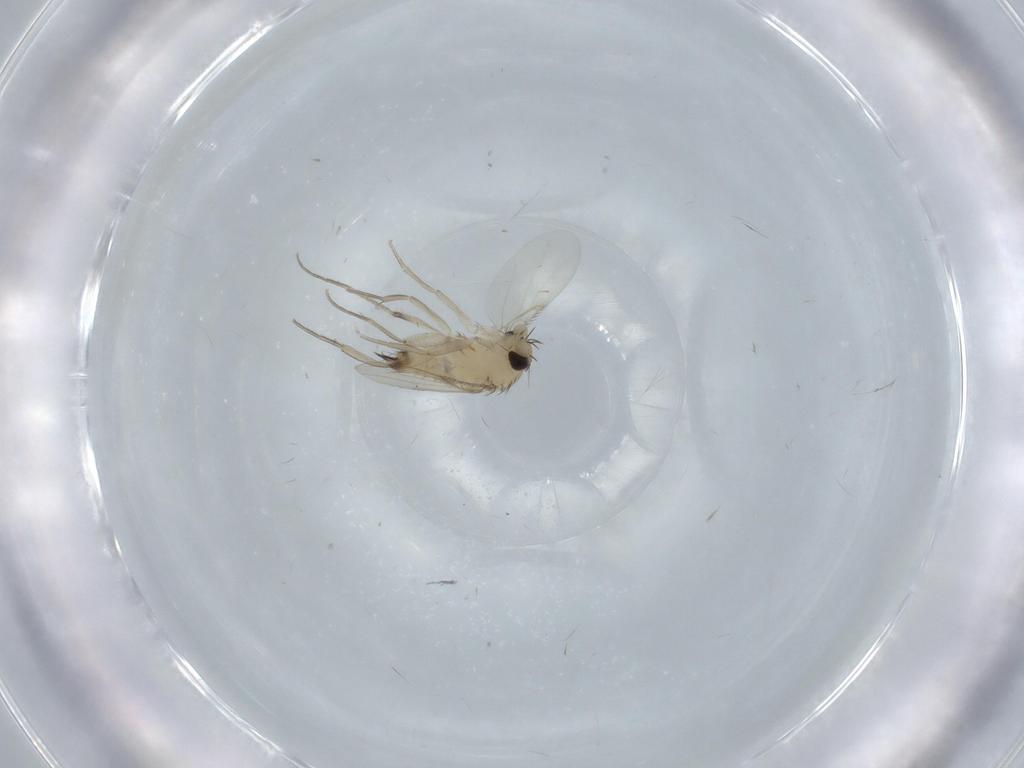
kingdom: Animalia
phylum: Arthropoda
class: Insecta
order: Diptera
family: Phoridae
